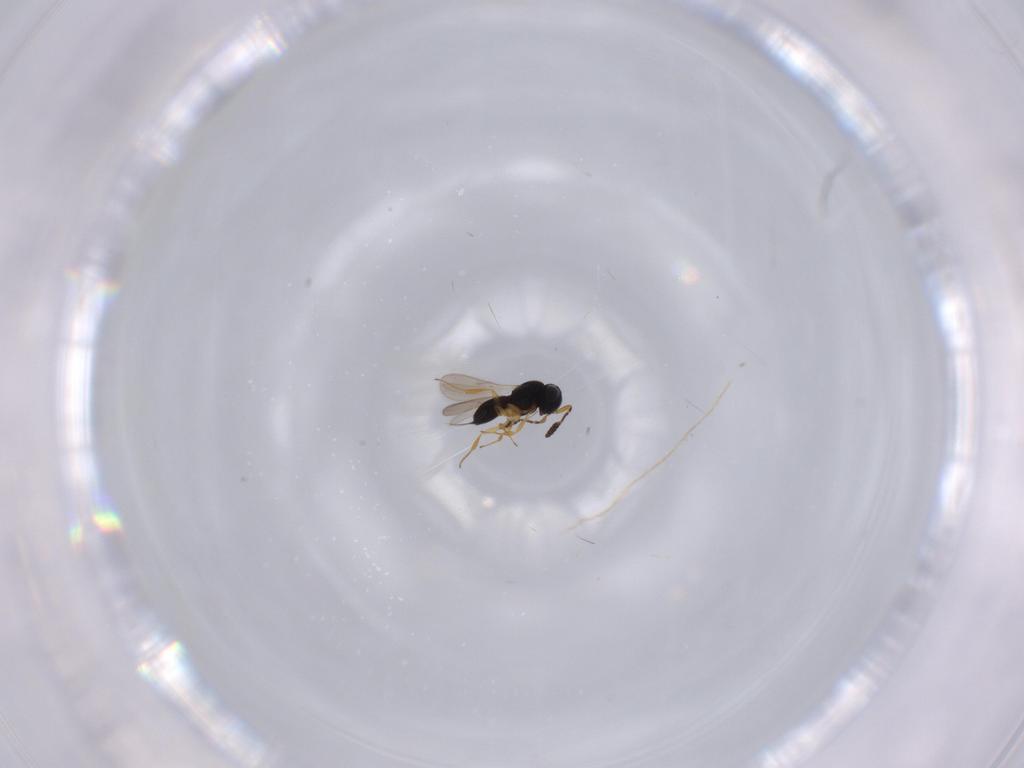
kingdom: Animalia
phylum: Arthropoda
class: Insecta
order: Hymenoptera
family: Scelionidae
